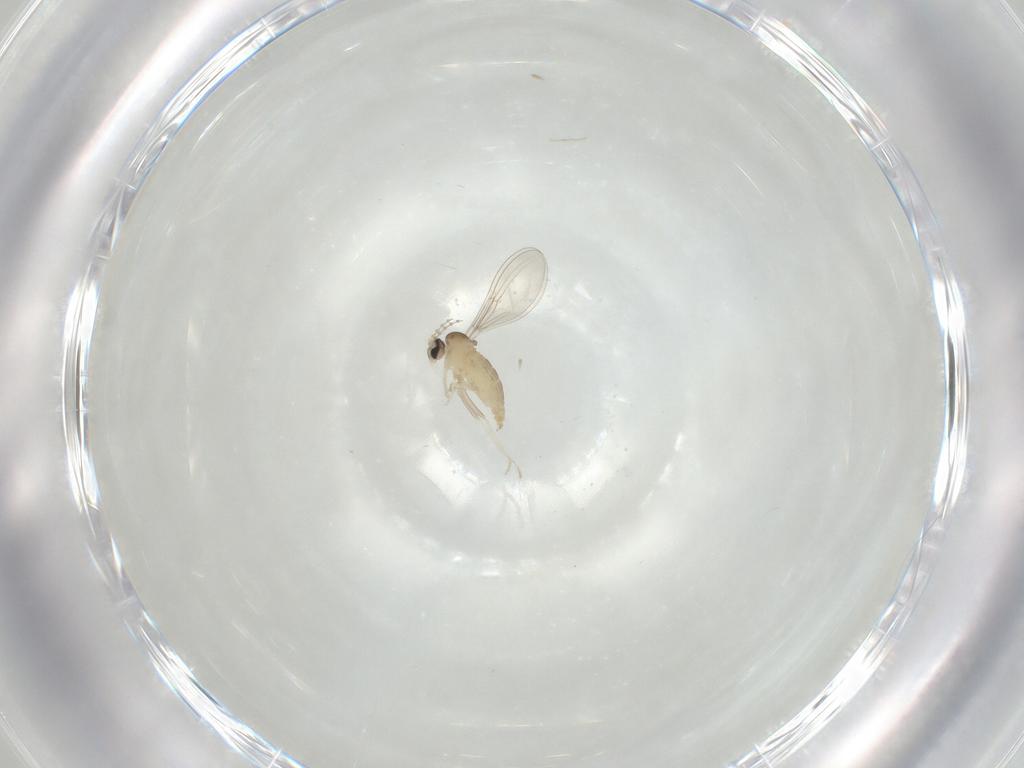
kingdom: Animalia
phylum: Arthropoda
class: Insecta
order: Diptera
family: Cecidomyiidae
